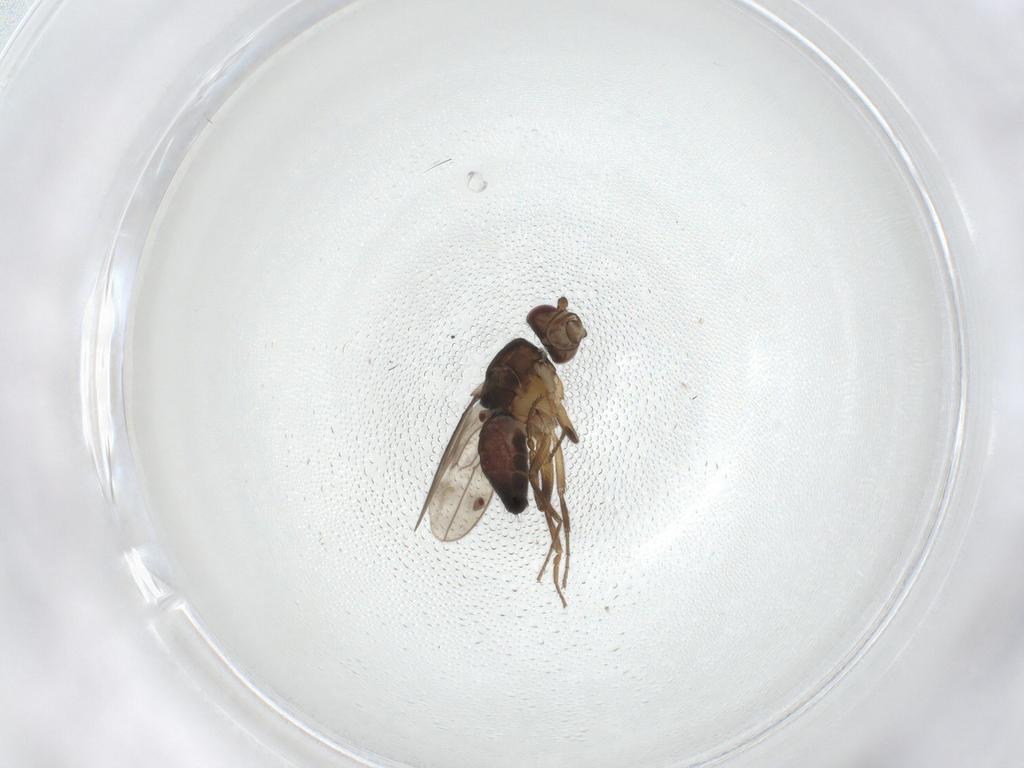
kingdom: Animalia
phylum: Arthropoda
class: Insecta
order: Diptera
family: Sphaeroceridae
